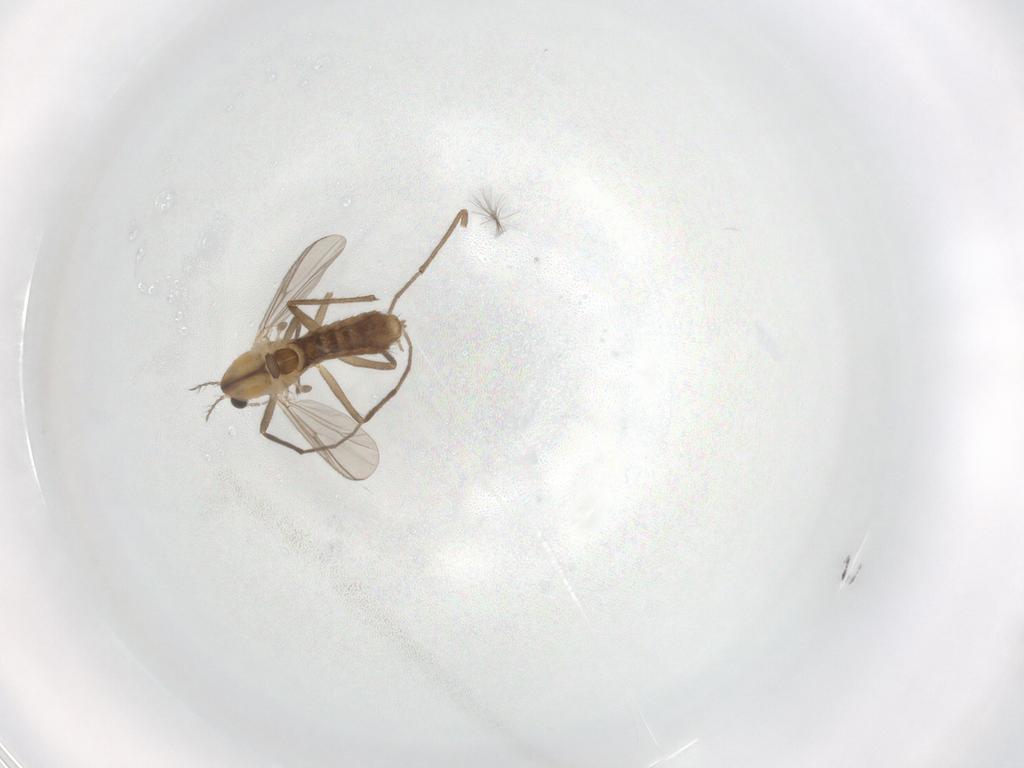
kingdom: Animalia
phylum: Arthropoda
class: Insecta
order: Diptera
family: Chironomidae
